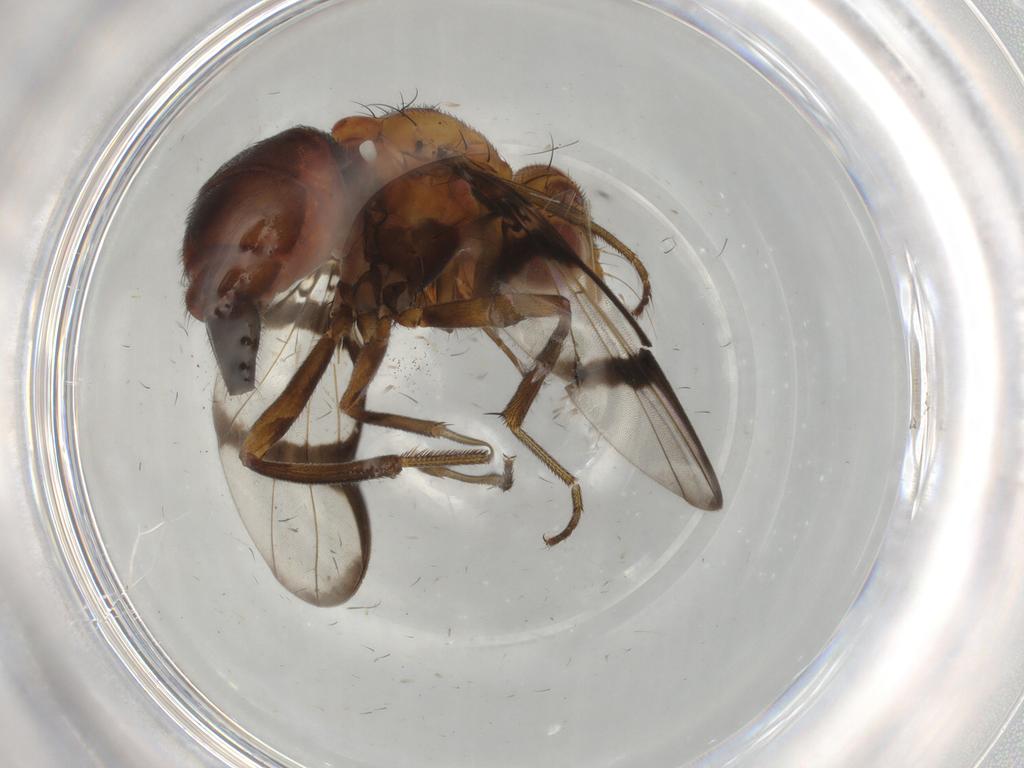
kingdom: Animalia
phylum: Arthropoda
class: Insecta
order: Diptera
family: Richardiidae
